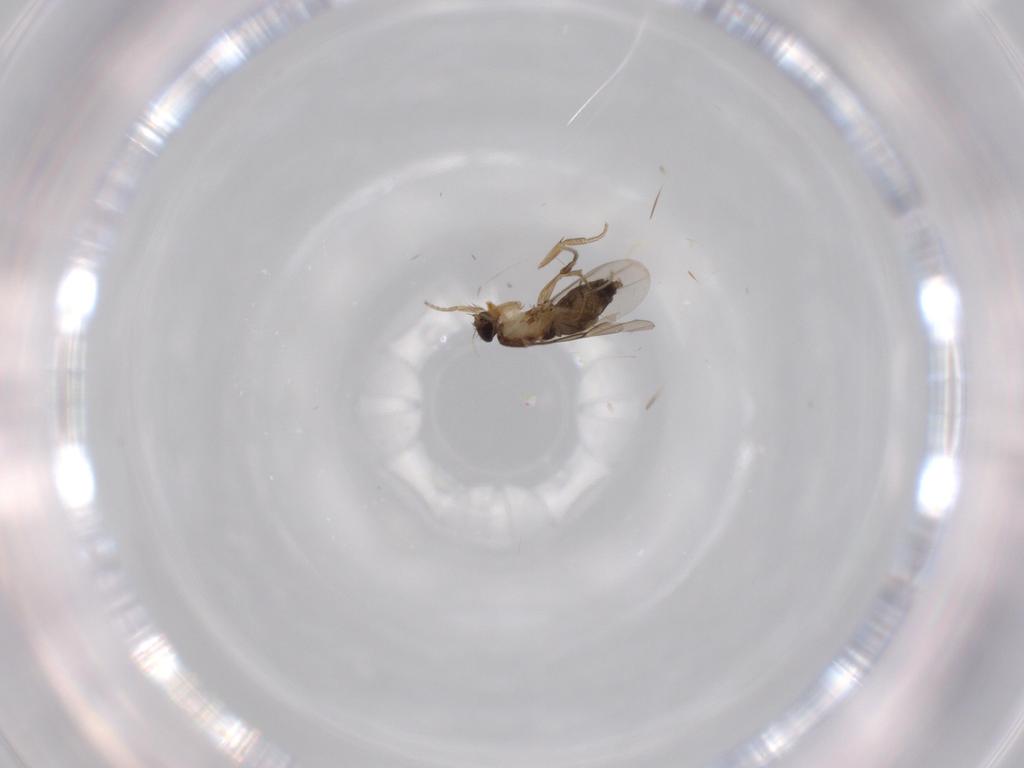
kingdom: Animalia
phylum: Arthropoda
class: Insecta
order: Diptera
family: Phoridae
